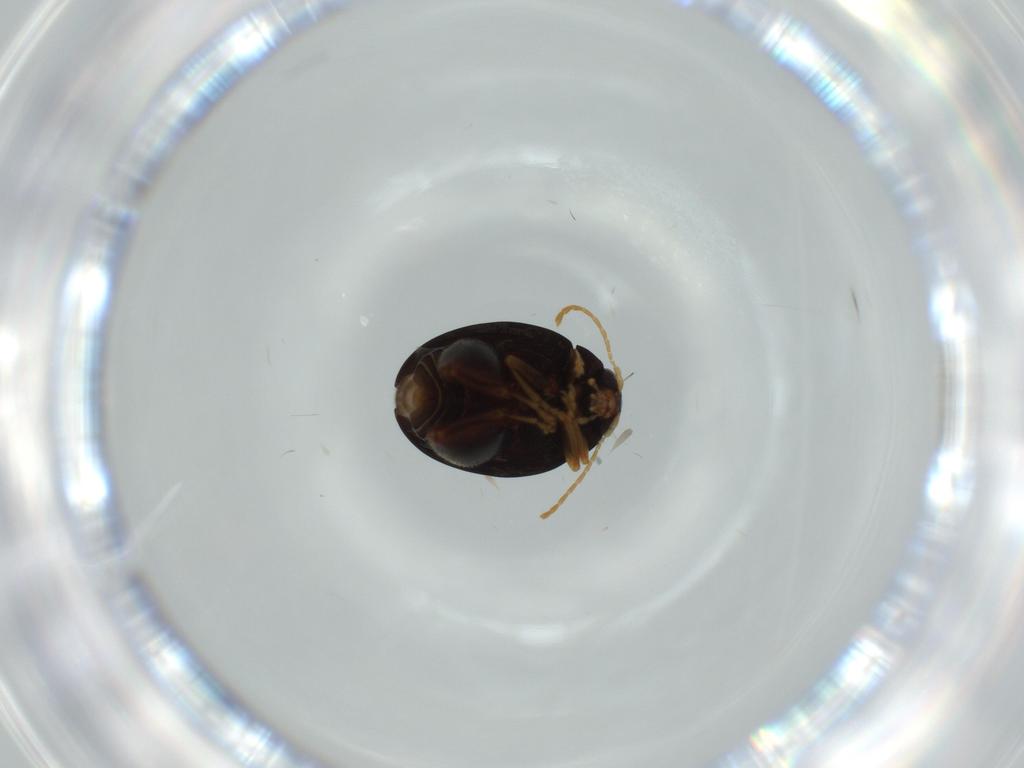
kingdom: Animalia
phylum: Arthropoda
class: Insecta
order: Coleoptera
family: Chrysomelidae
